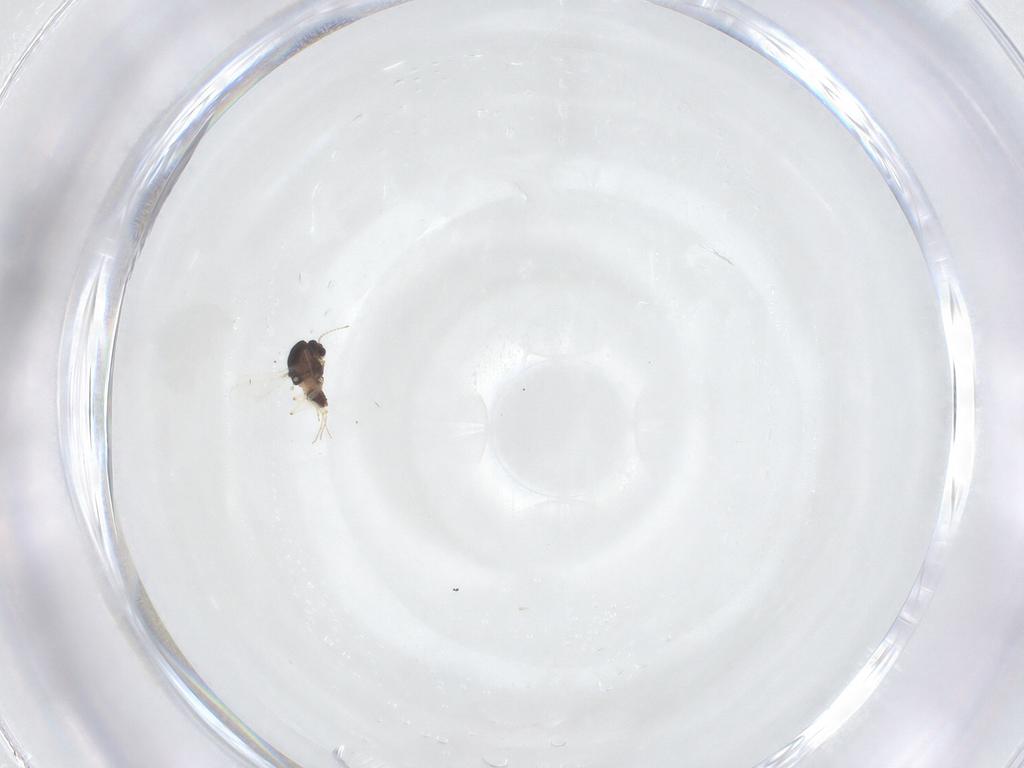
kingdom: Animalia
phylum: Arthropoda
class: Insecta
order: Diptera
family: Chironomidae
